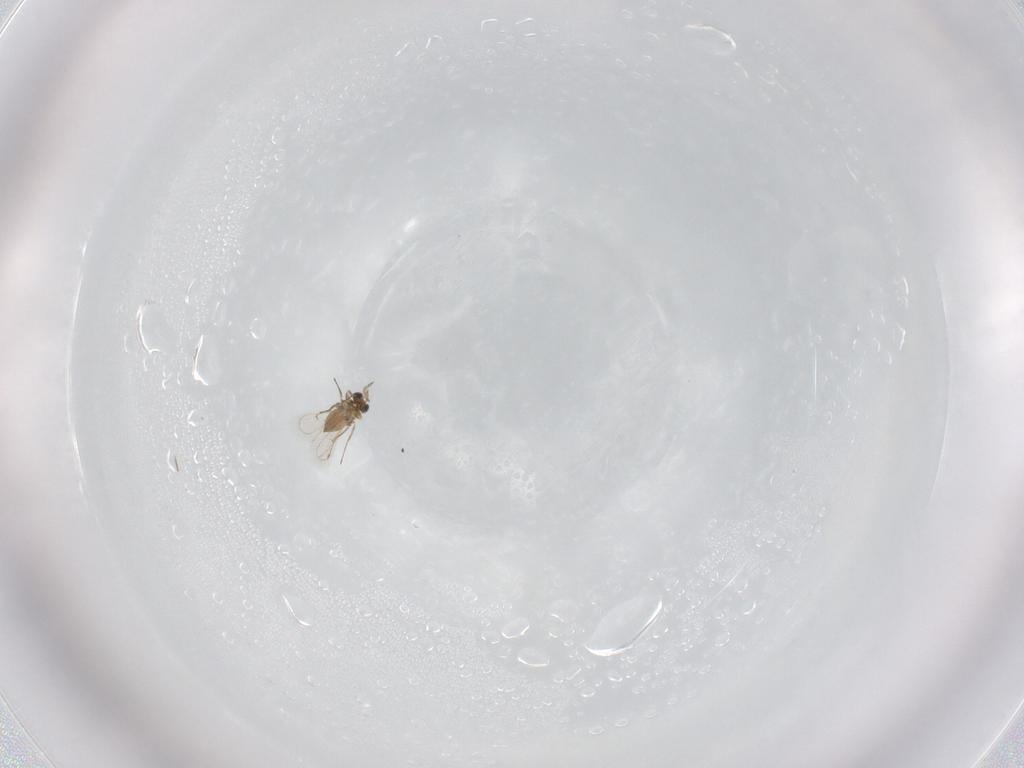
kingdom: Animalia
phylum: Arthropoda
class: Insecta
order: Hymenoptera
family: Trichogrammatidae
